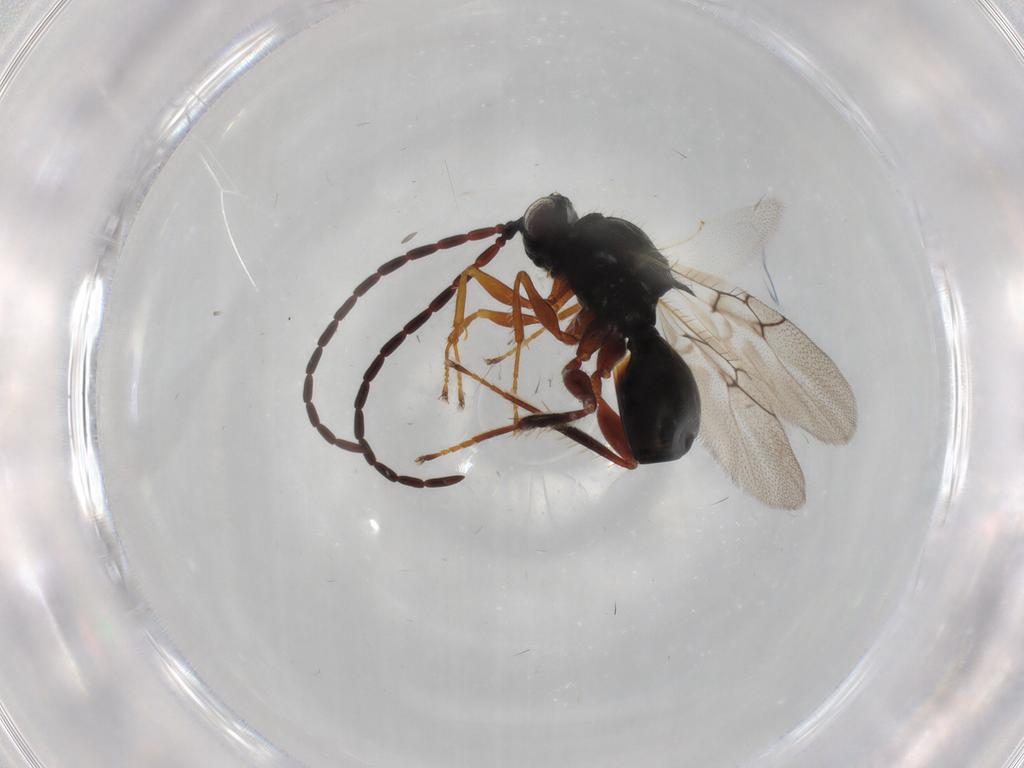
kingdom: Animalia
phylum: Arthropoda
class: Insecta
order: Hymenoptera
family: Figitidae
